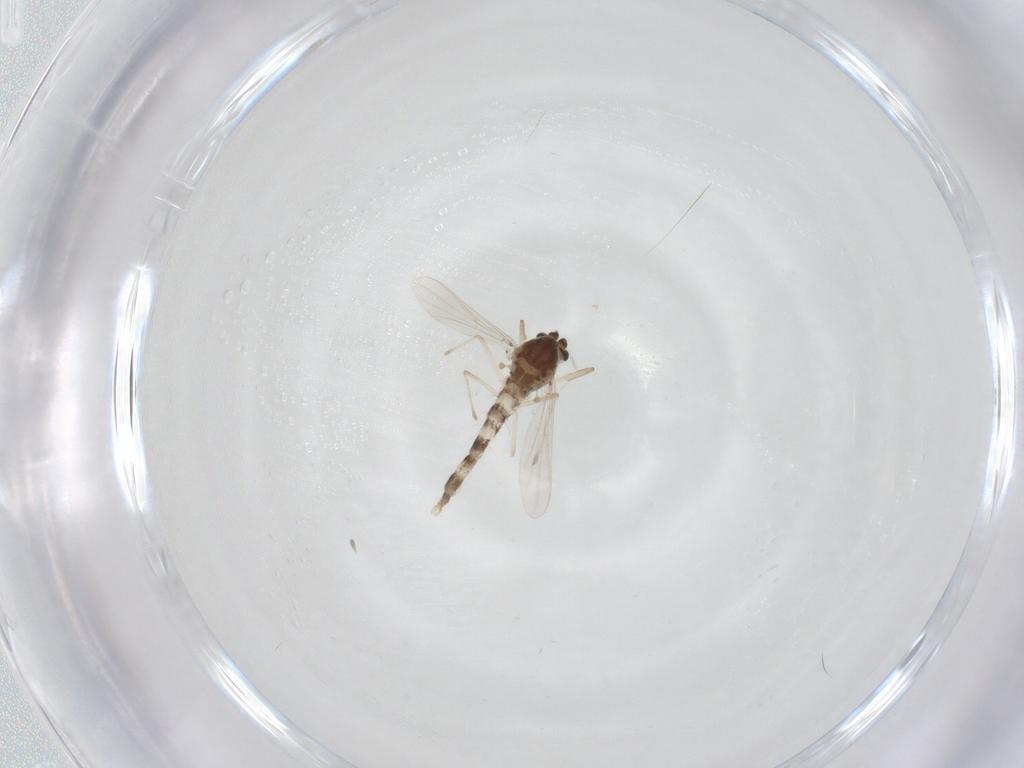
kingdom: Animalia
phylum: Arthropoda
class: Insecta
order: Diptera
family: Chironomidae
